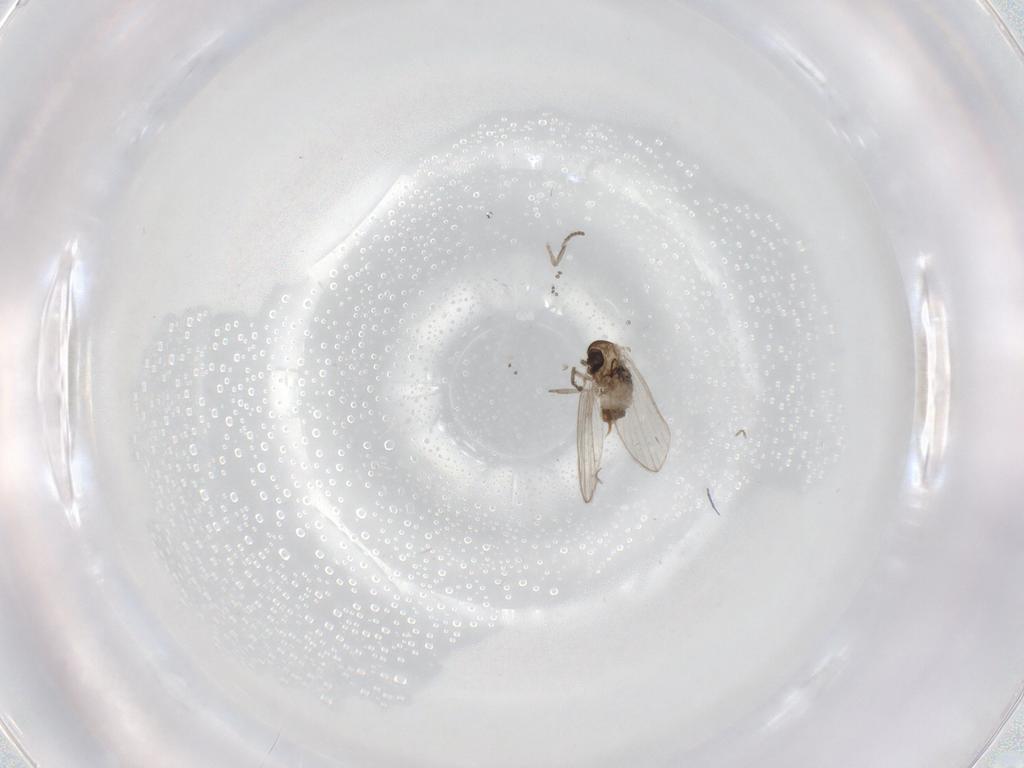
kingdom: Animalia
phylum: Arthropoda
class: Insecta
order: Diptera
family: Psychodidae
